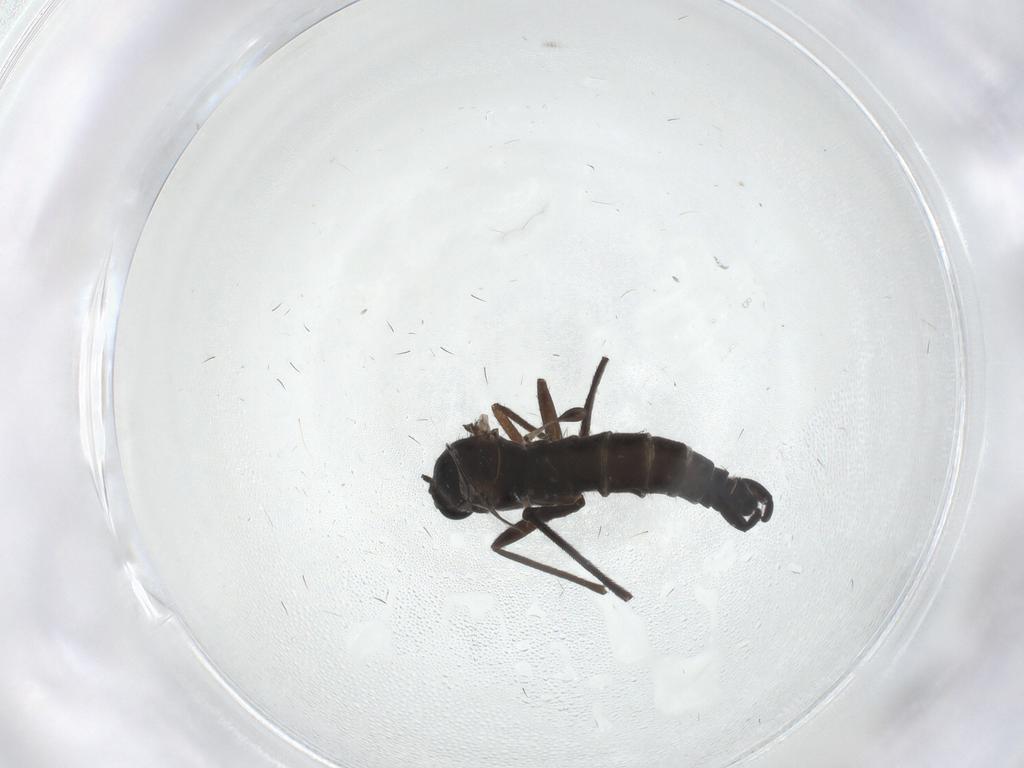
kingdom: Animalia
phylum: Arthropoda
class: Insecta
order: Diptera
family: Sciaridae
